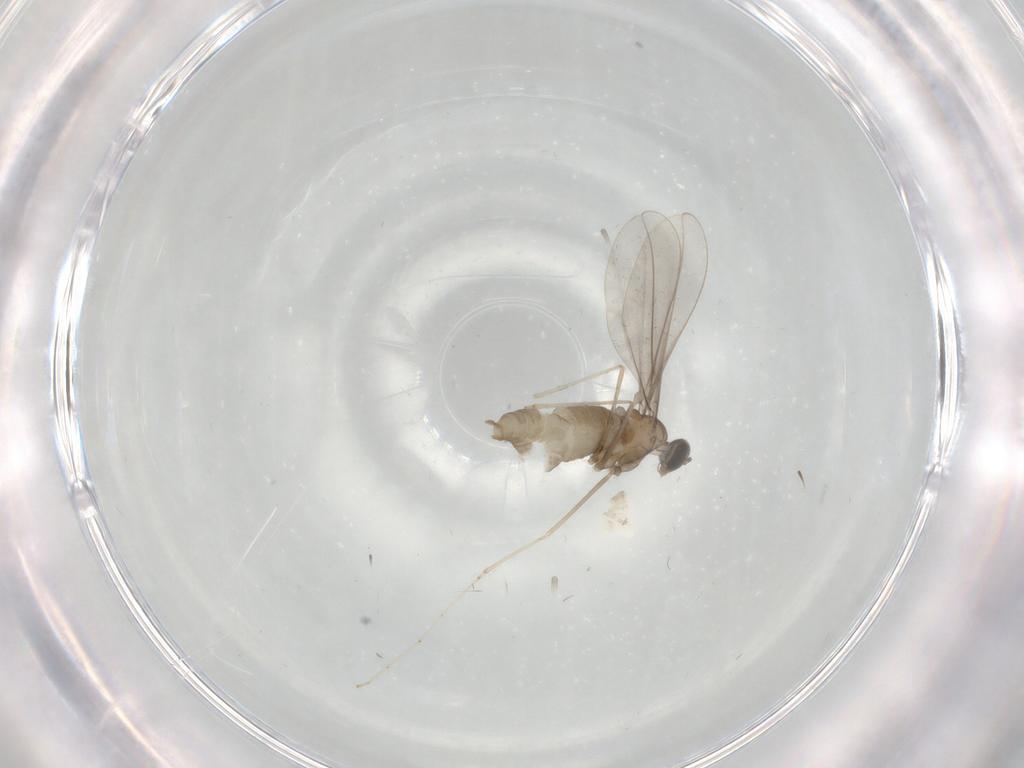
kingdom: Animalia
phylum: Arthropoda
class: Insecta
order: Diptera
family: Cecidomyiidae
